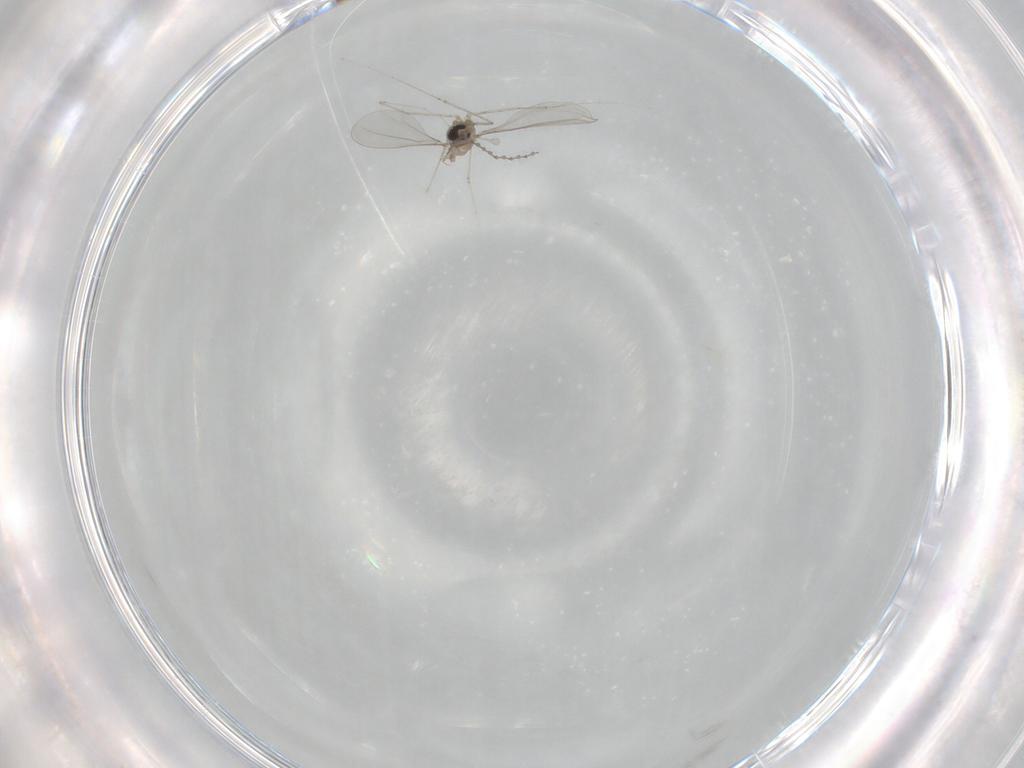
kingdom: Animalia
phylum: Arthropoda
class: Insecta
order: Diptera
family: Cecidomyiidae
